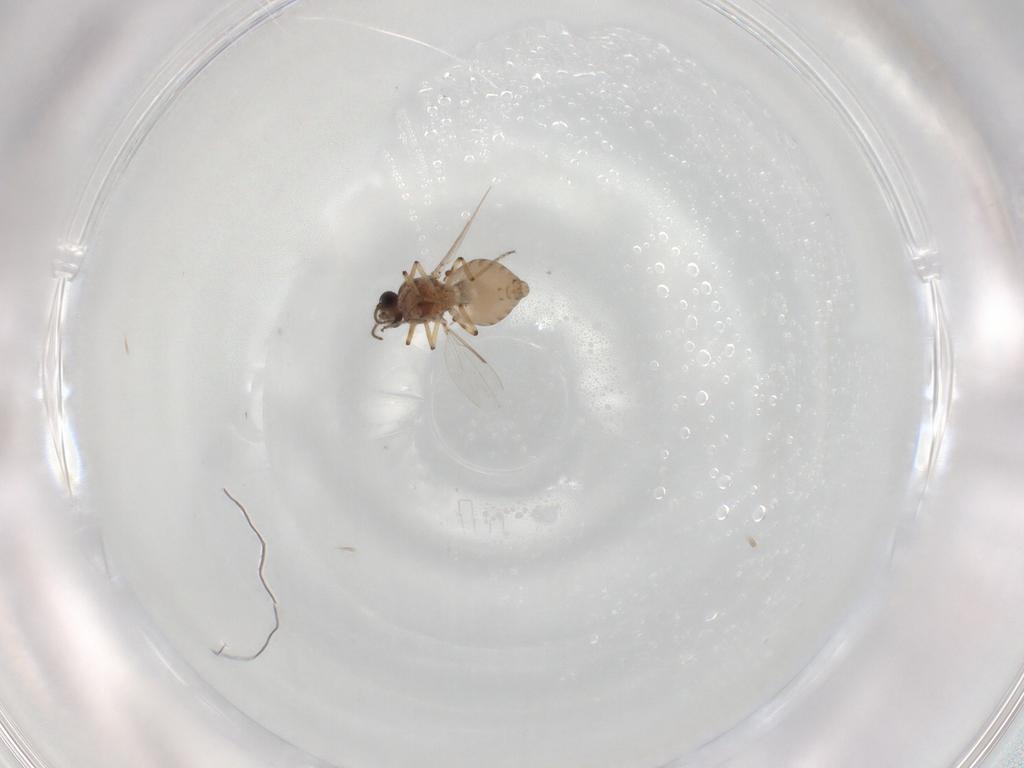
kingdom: Animalia
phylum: Arthropoda
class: Insecta
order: Diptera
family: Ceratopogonidae
